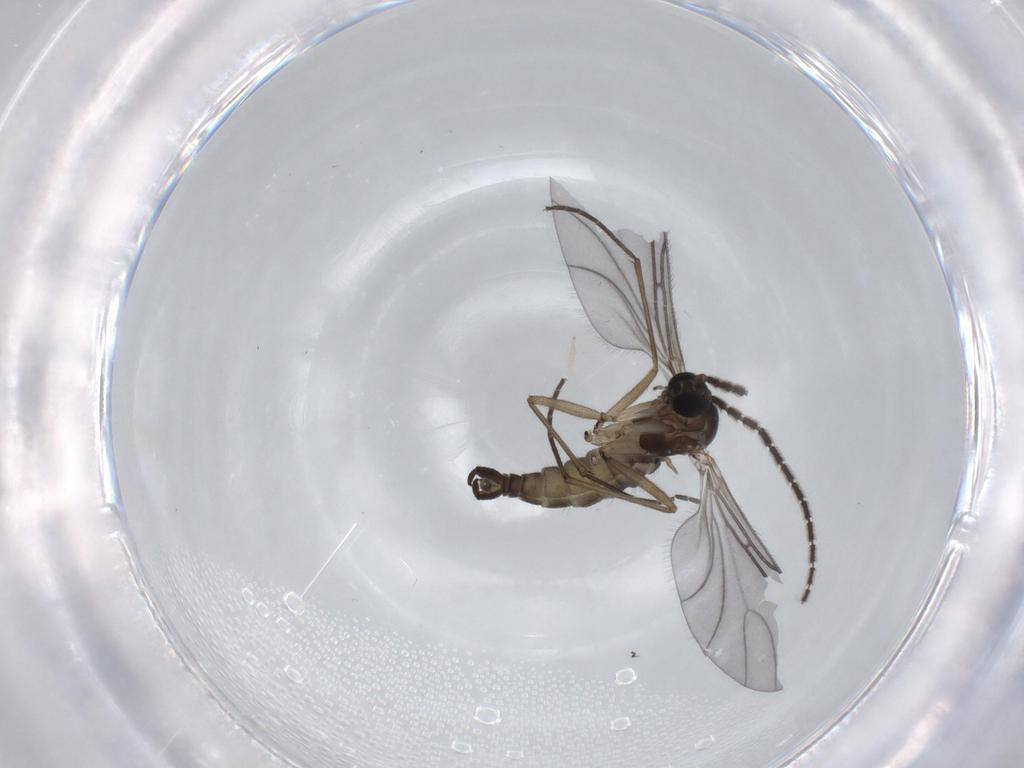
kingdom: Animalia
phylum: Arthropoda
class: Insecta
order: Diptera
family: Sciaridae
